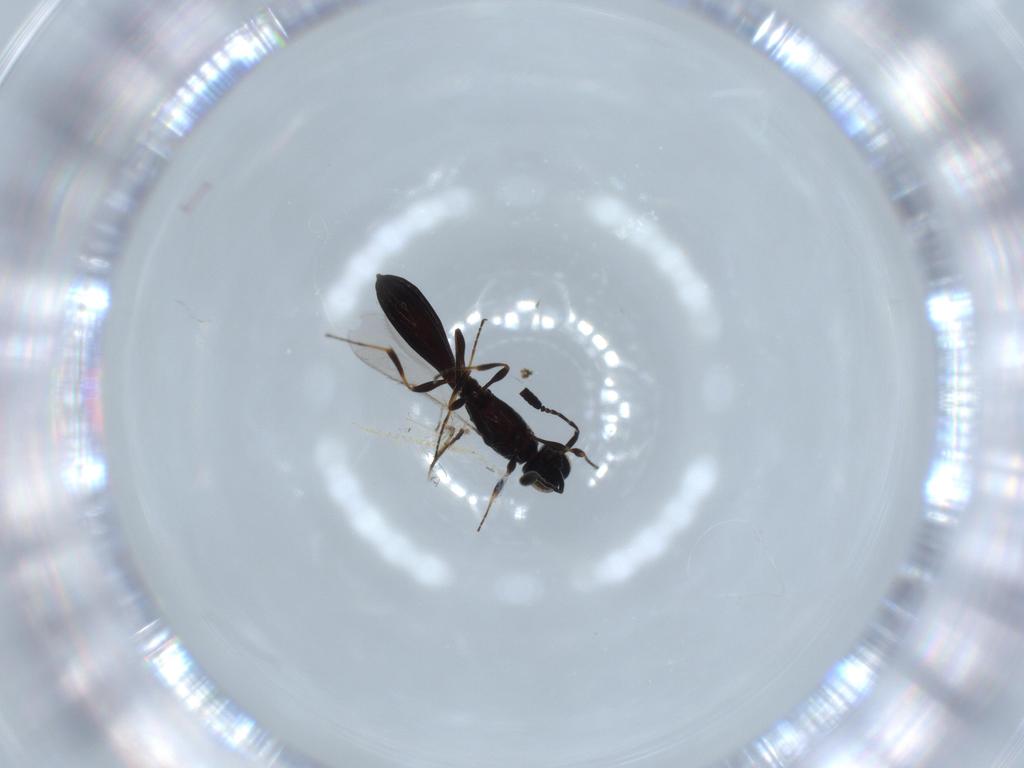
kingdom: Animalia
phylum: Arthropoda
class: Insecta
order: Hymenoptera
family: Scelionidae
